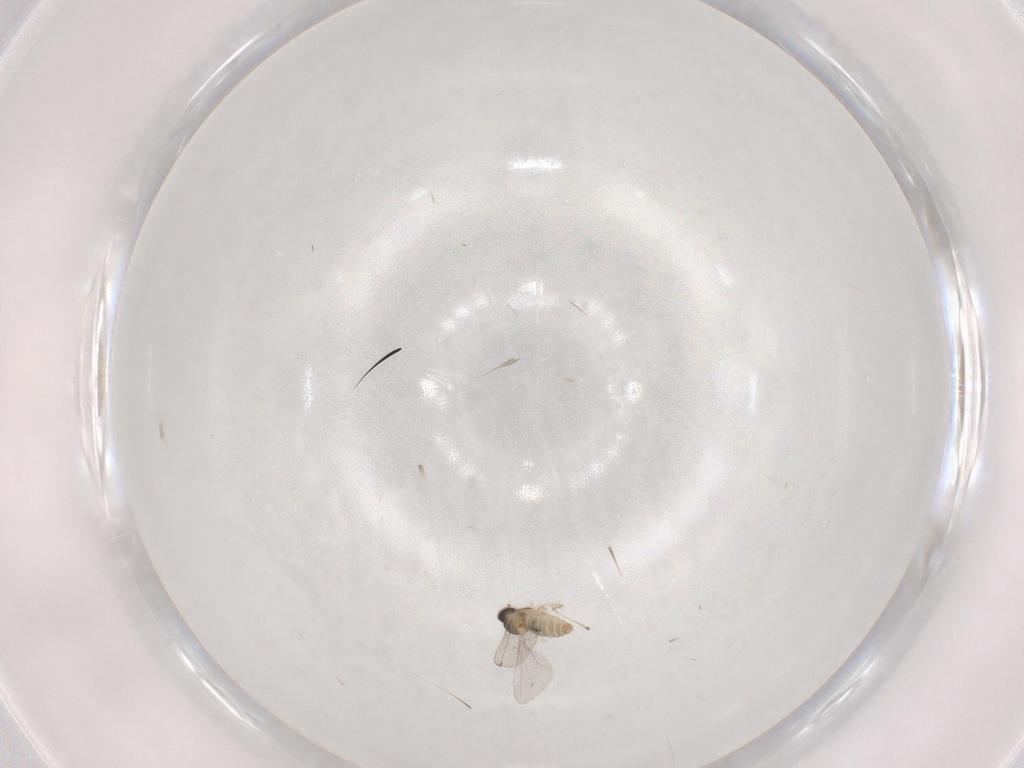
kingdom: Animalia
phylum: Arthropoda
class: Insecta
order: Diptera
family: Cecidomyiidae
